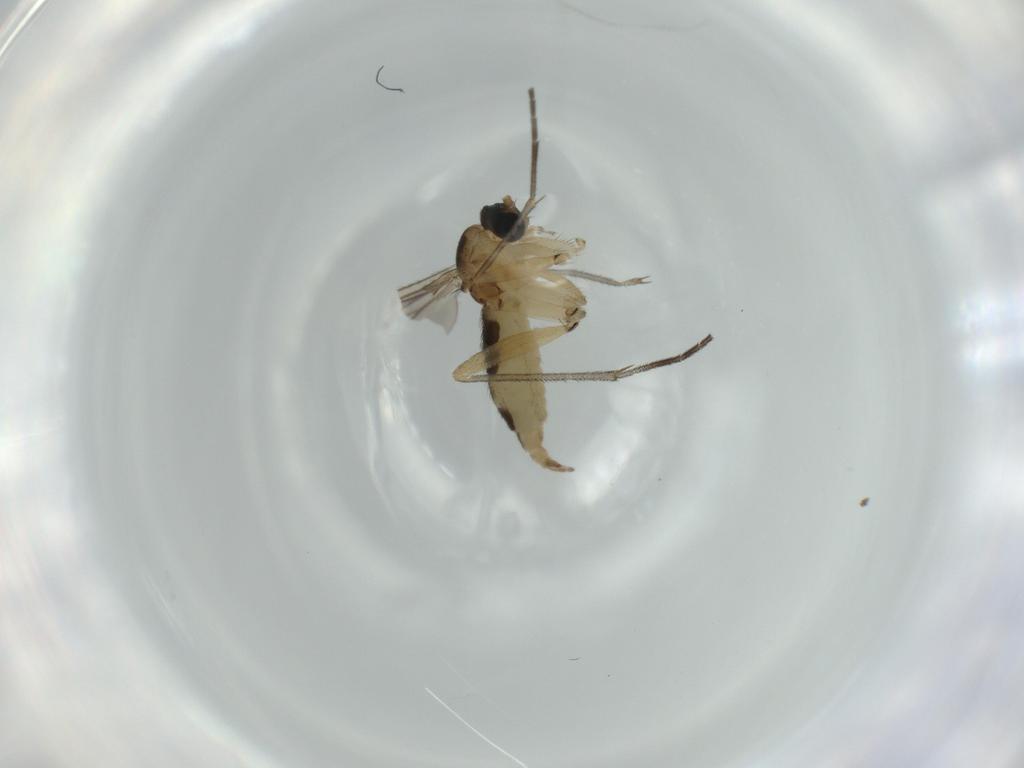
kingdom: Animalia
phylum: Arthropoda
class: Insecta
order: Diptera
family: Sciaridae
